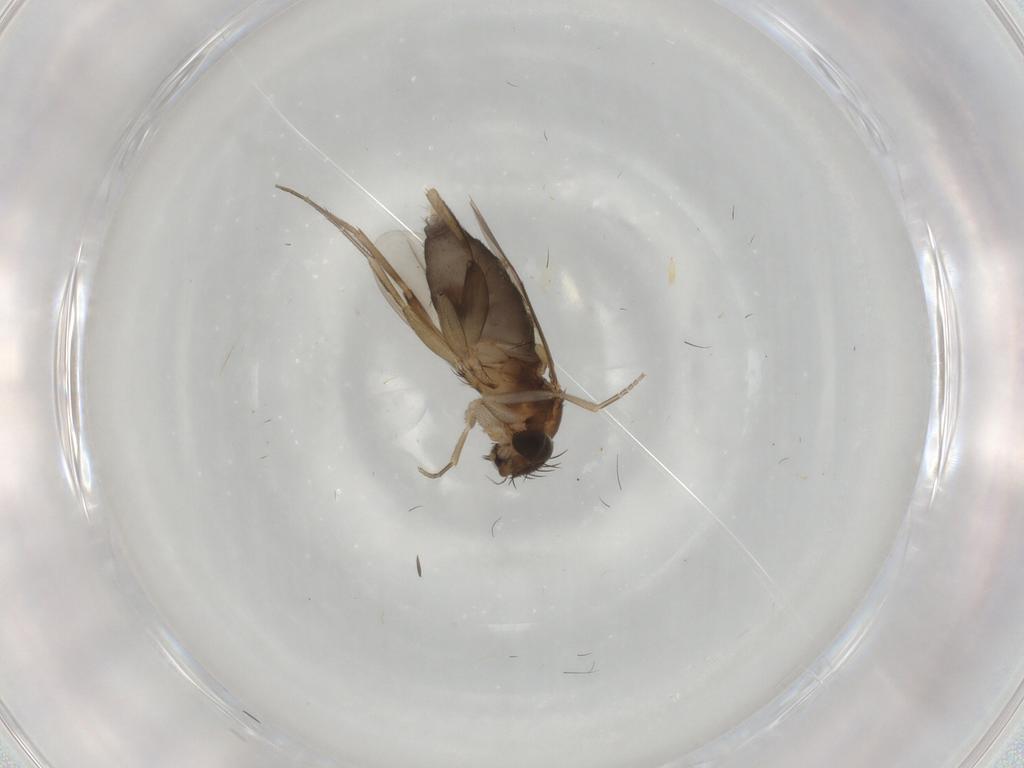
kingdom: Animalia
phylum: Arthropoda
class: Insecta
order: Diptera
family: Phoridae
